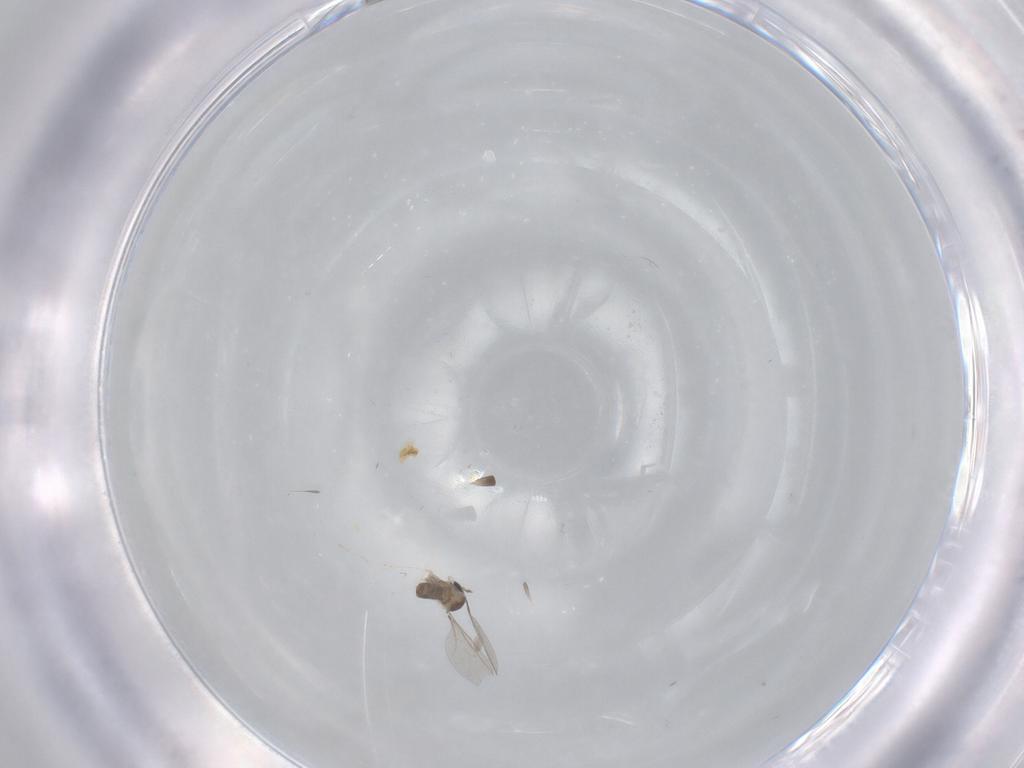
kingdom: Animalia
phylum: Arthropoda
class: Insecta
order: Diptera
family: Cecidomyiidae
